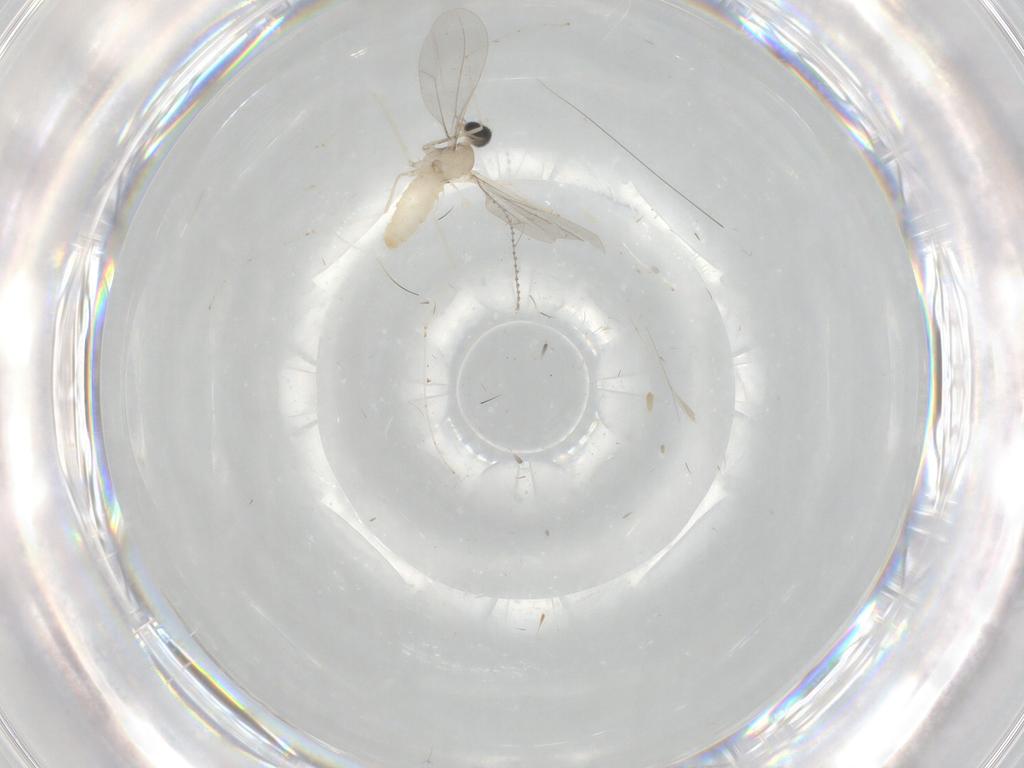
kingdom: Animalia
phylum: Arthropoda
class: Insecta
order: Diptera
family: Cecidomyiidae
